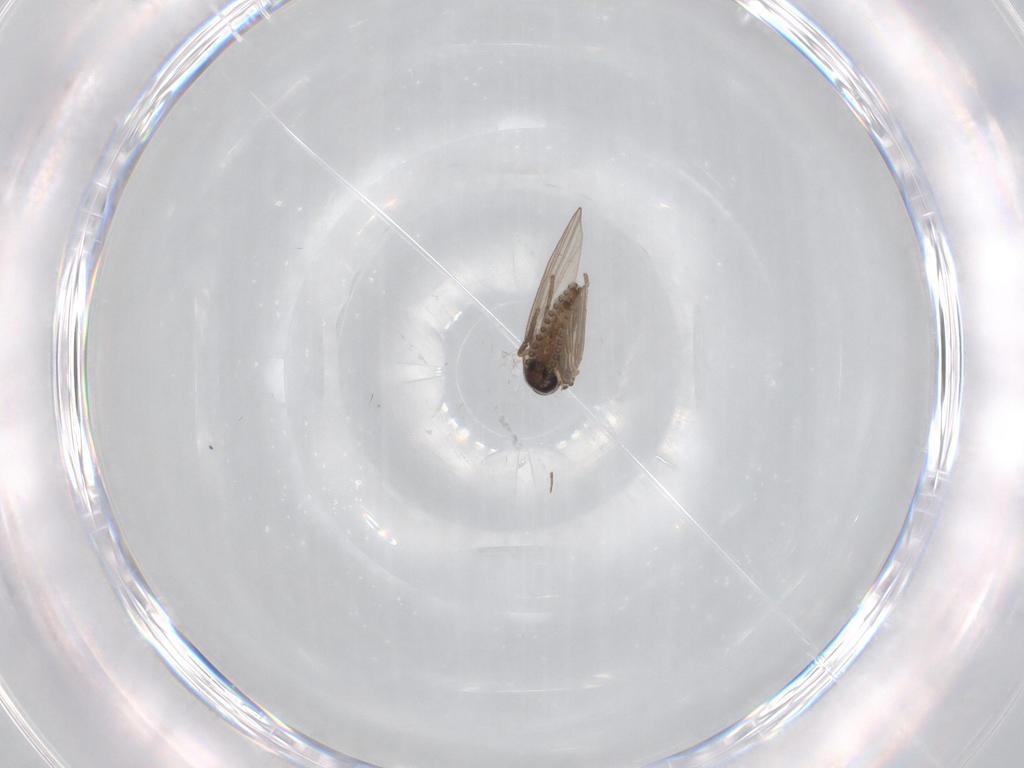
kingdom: Animalia
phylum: Arthropoda
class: Insecta
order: Diptera
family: Psychodidae
